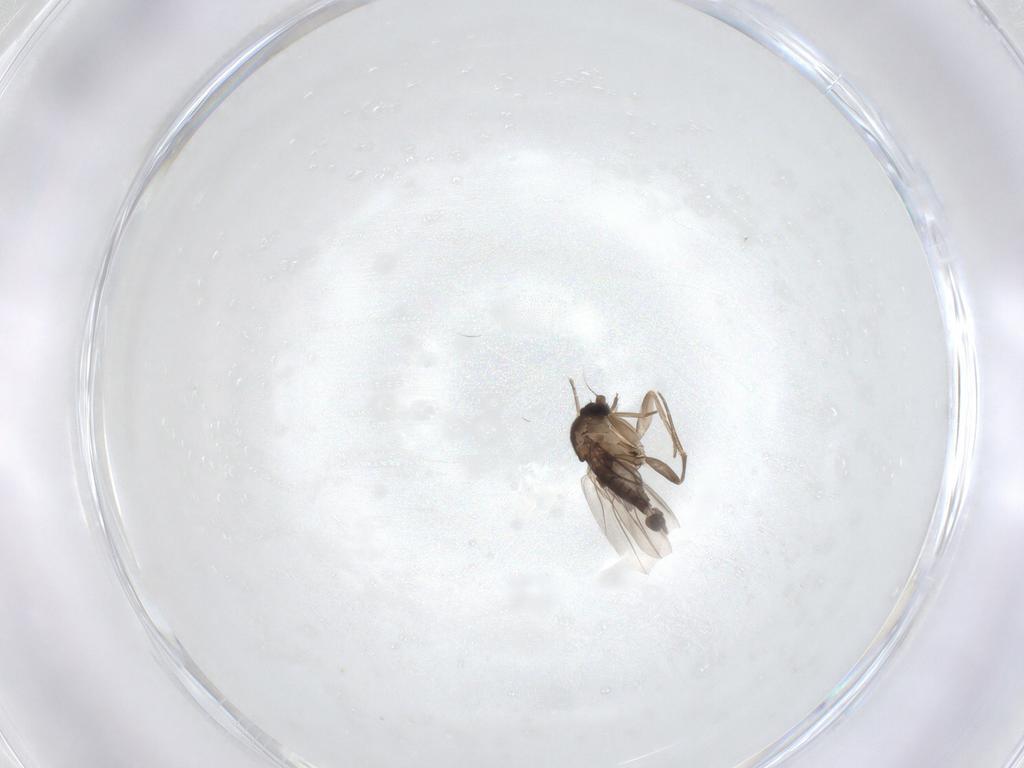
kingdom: Animalia
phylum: Arthropoda
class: Insecta
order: Diptera
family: Phoridae
